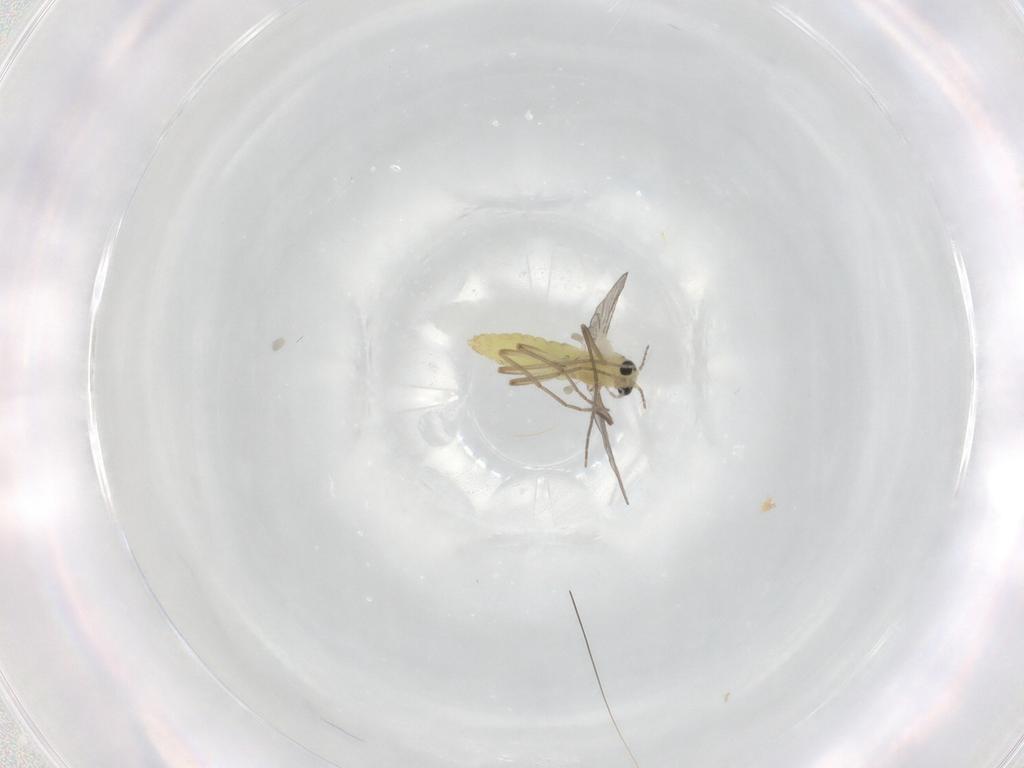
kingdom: Animalia
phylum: Arthropoda
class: Insecta
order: Diptera
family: Chironomidae
